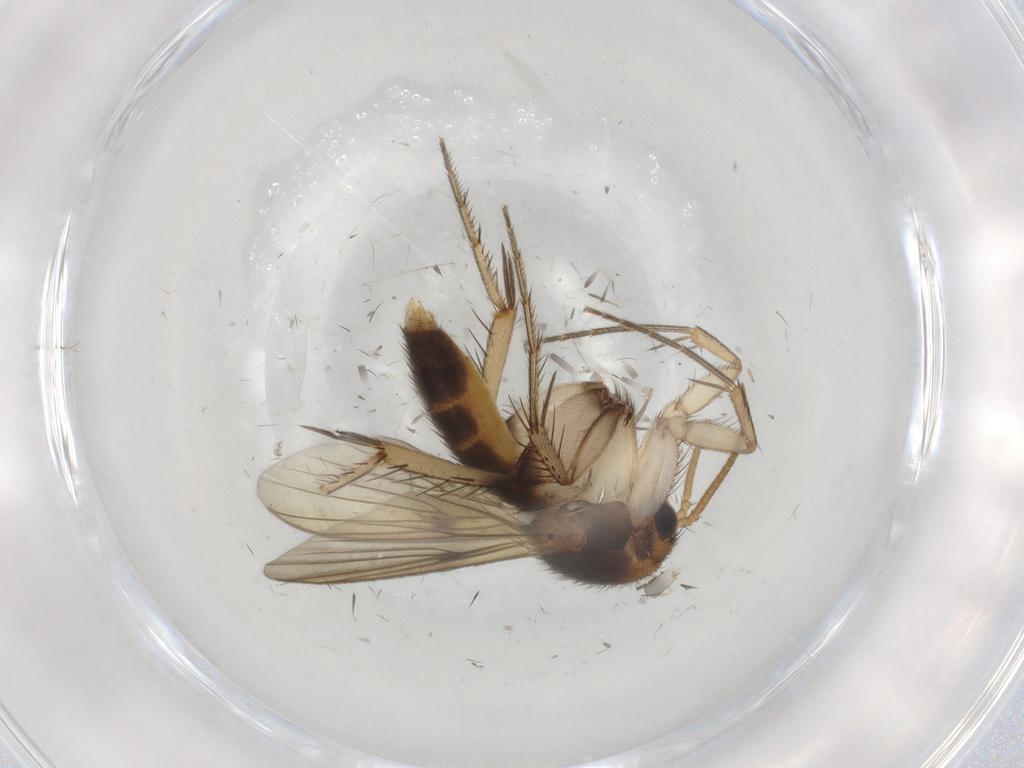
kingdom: Animalia
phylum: Arthropoda
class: Insecta
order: Diptera
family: Mycetophilidae
